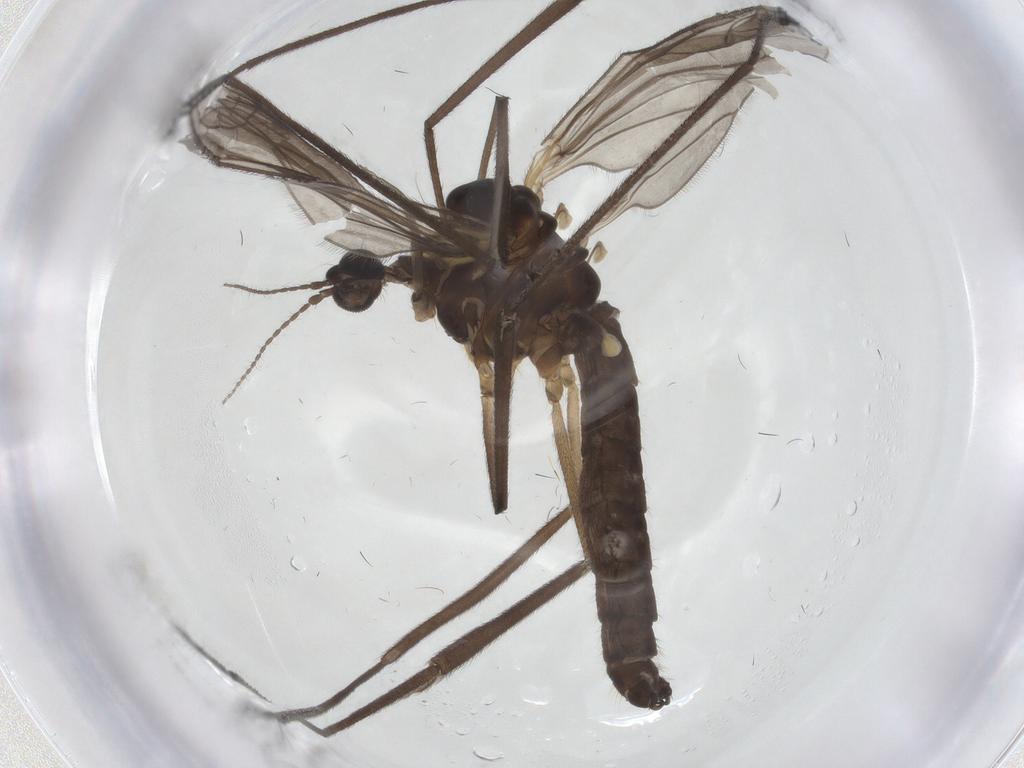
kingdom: Animalia
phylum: Arthropoda
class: Insecta
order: Diptera
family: Limoniidae
